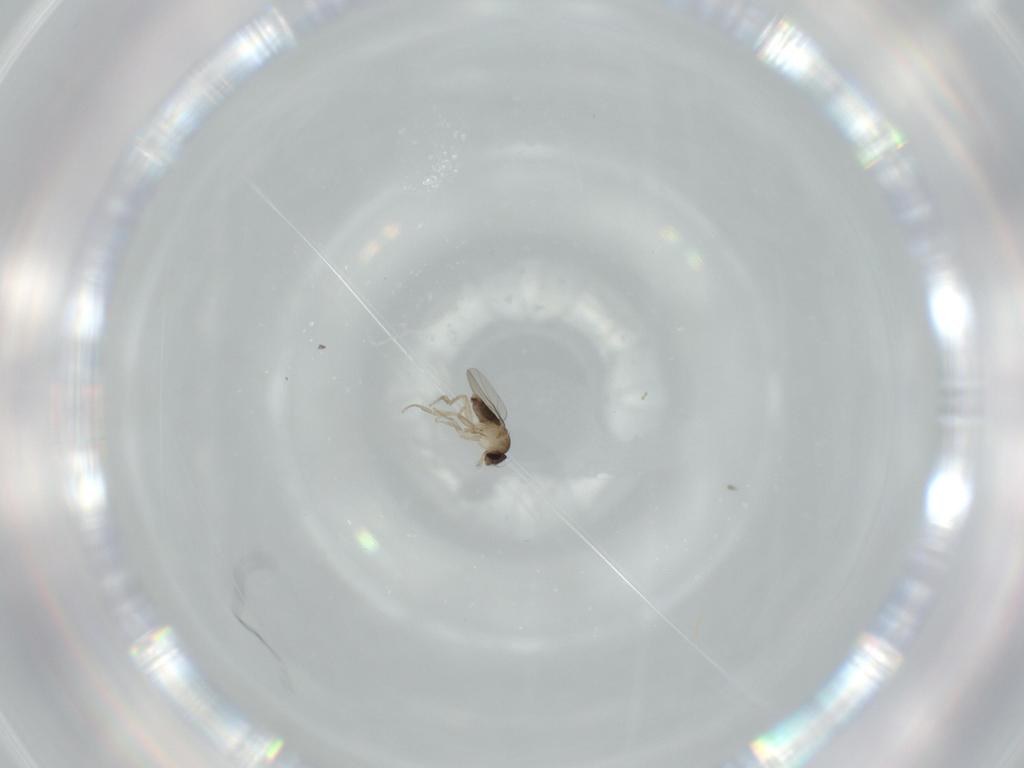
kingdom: Animalia
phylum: Arthropoda
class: Insecta
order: Diptera
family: Phoridae
